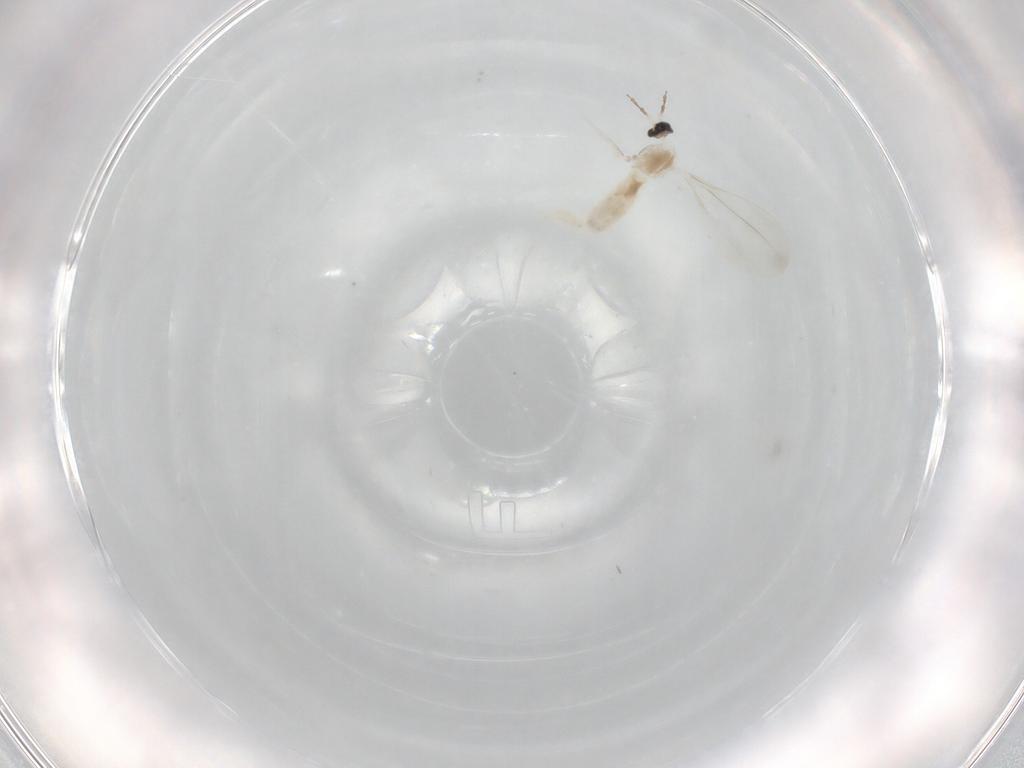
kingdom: Animalia
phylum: Arthropoda
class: Insecta
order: Diptera
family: Cecidomyiidae
